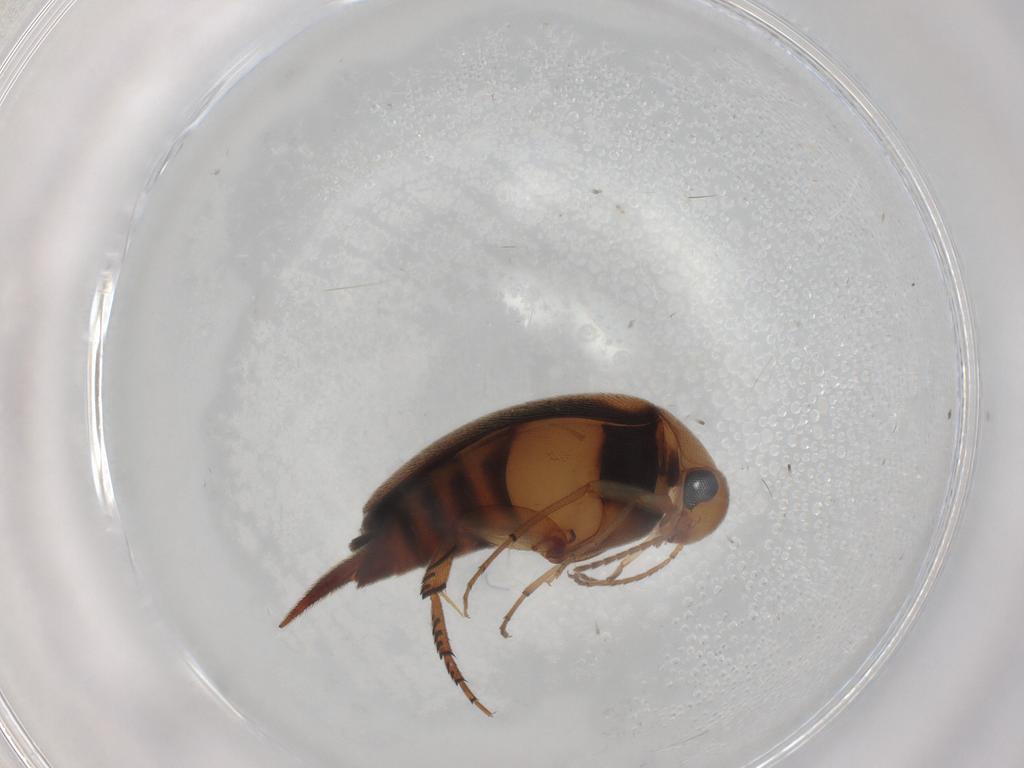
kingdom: Animalia
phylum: Arthropoda
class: Insecta
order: Coleoptera
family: Mordellidae
